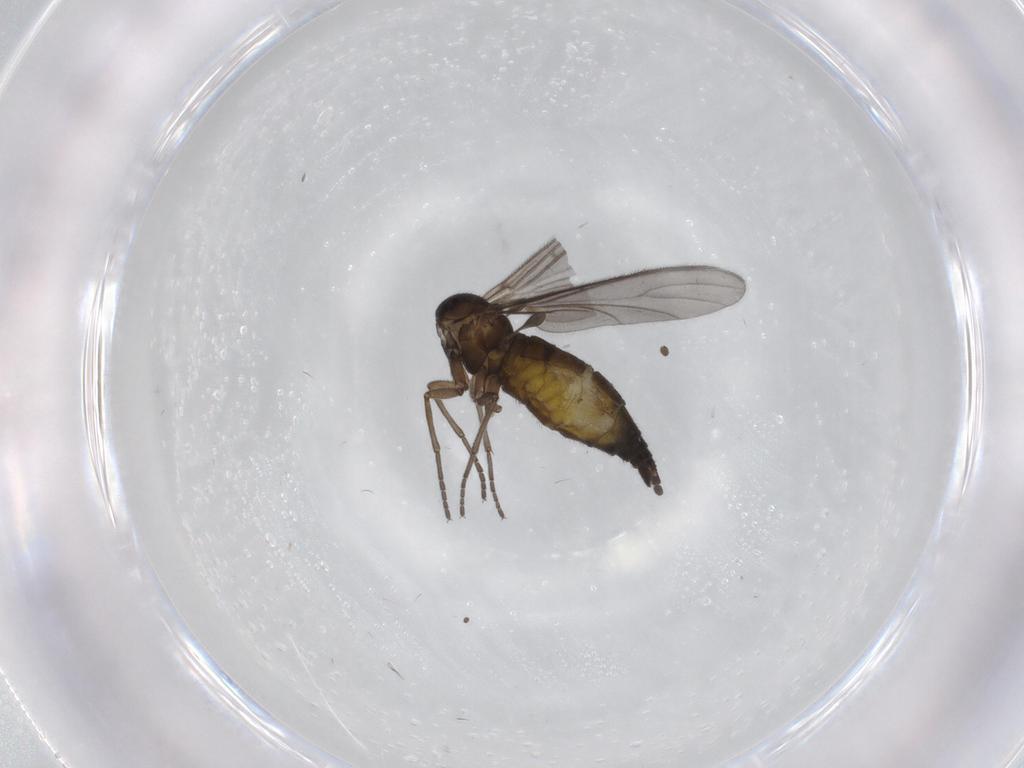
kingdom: Animalia
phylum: Arthropoda
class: Insecta
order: Diptera
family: Sciaridae
